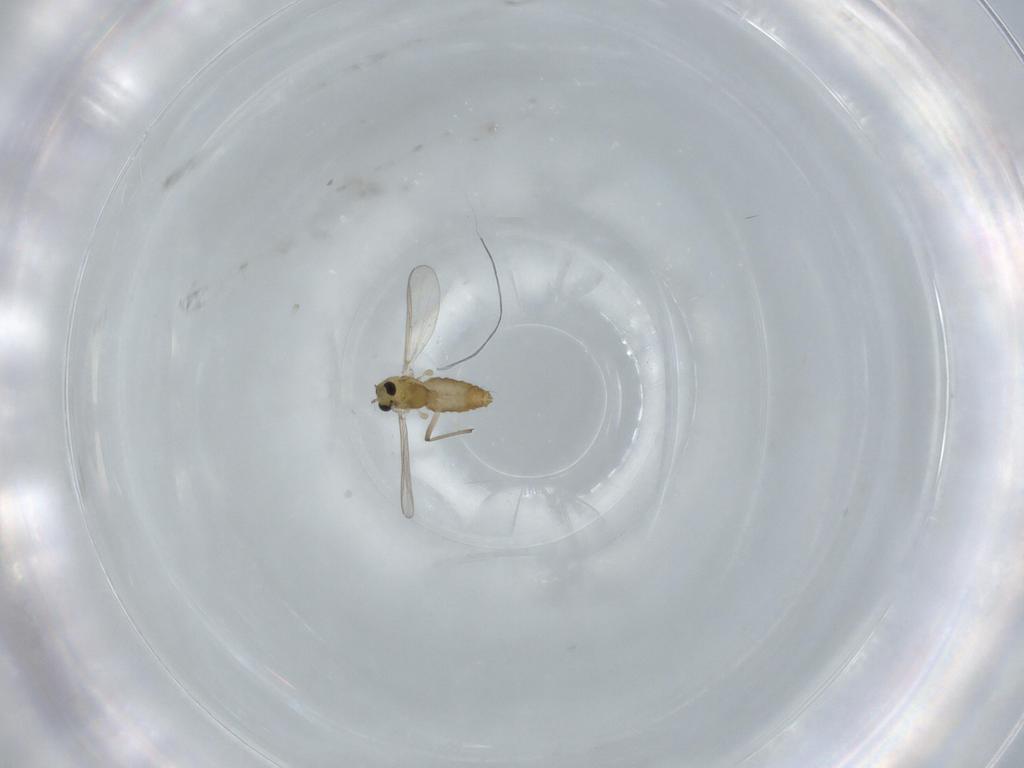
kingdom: Animalia
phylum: Arthropoda
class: Insecta
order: Diptera
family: Chironomidae
